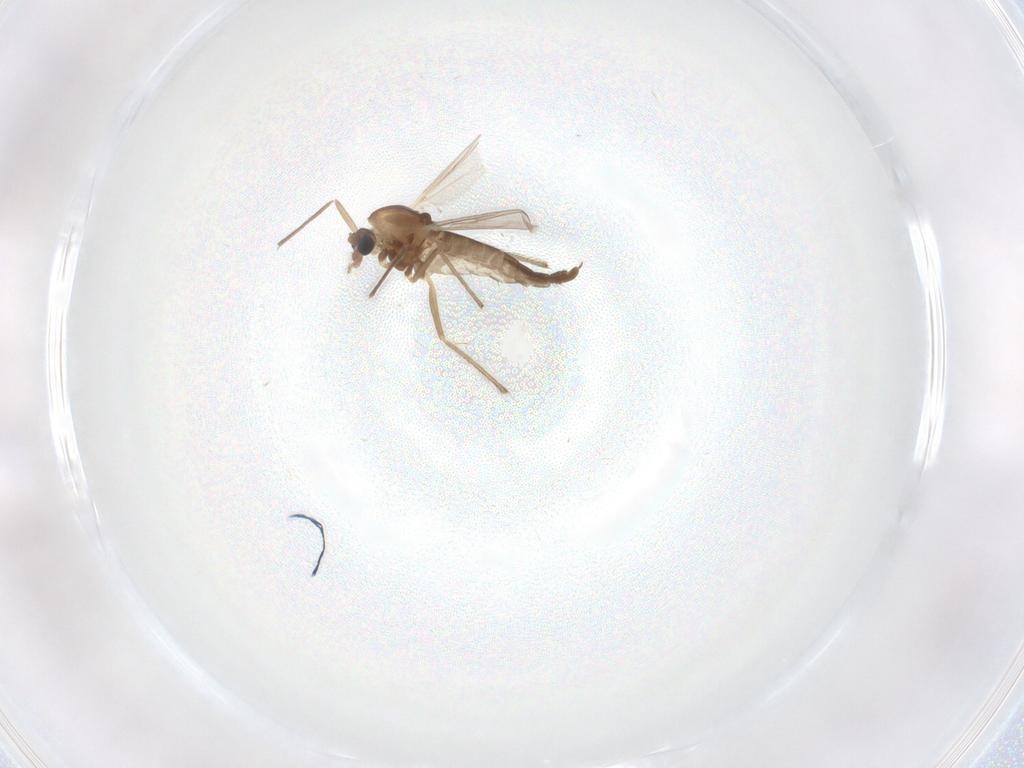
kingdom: Animalia
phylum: Arthropoda
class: Insecta
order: Diptera
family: Chironomidae
